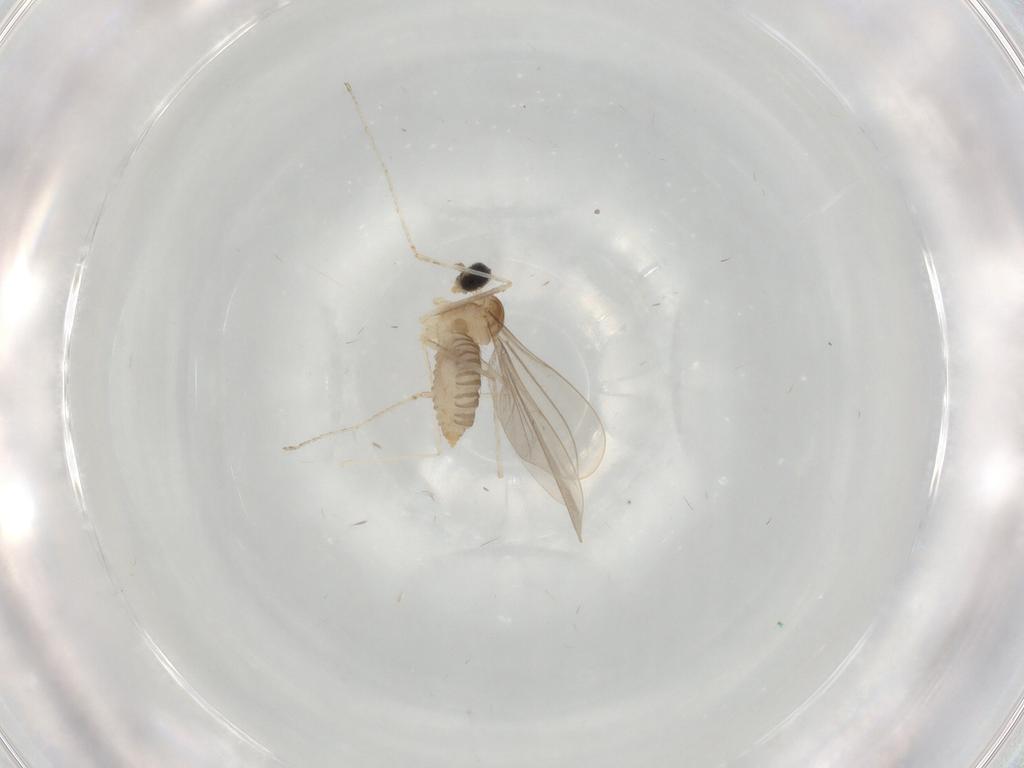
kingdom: Animalia
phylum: Arthropoda
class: Insecta
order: Diptera
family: Cecidomyiidae
